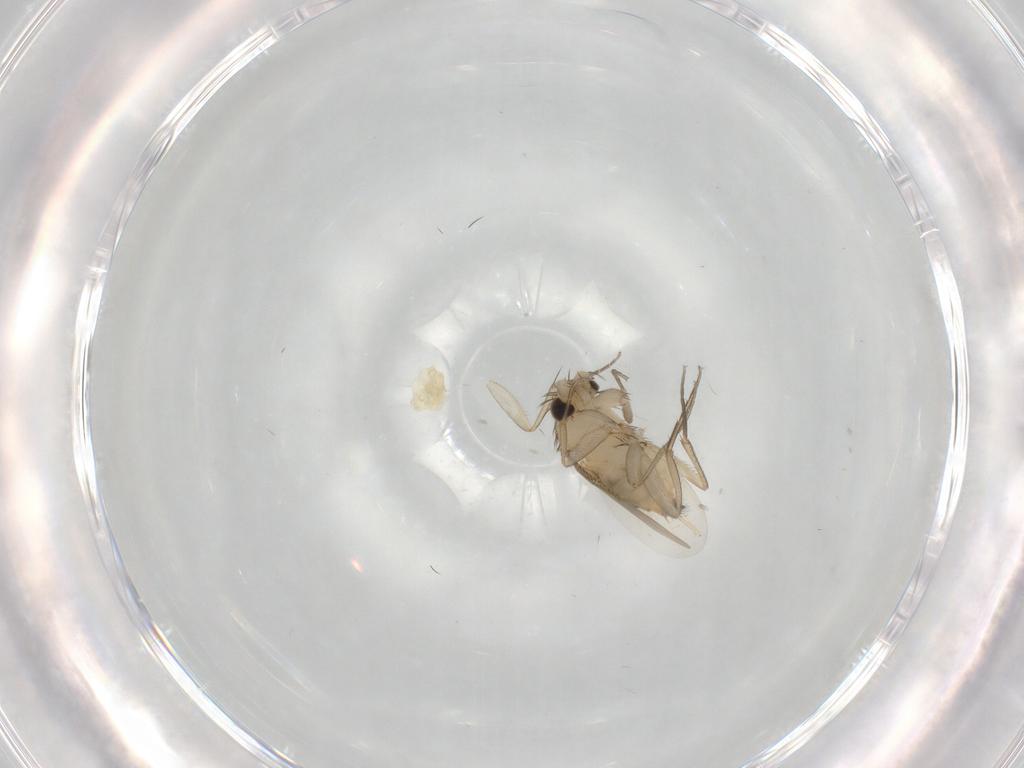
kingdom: Animalia
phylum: Arthropoda
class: Insecta
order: Diptera
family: Phoridae
